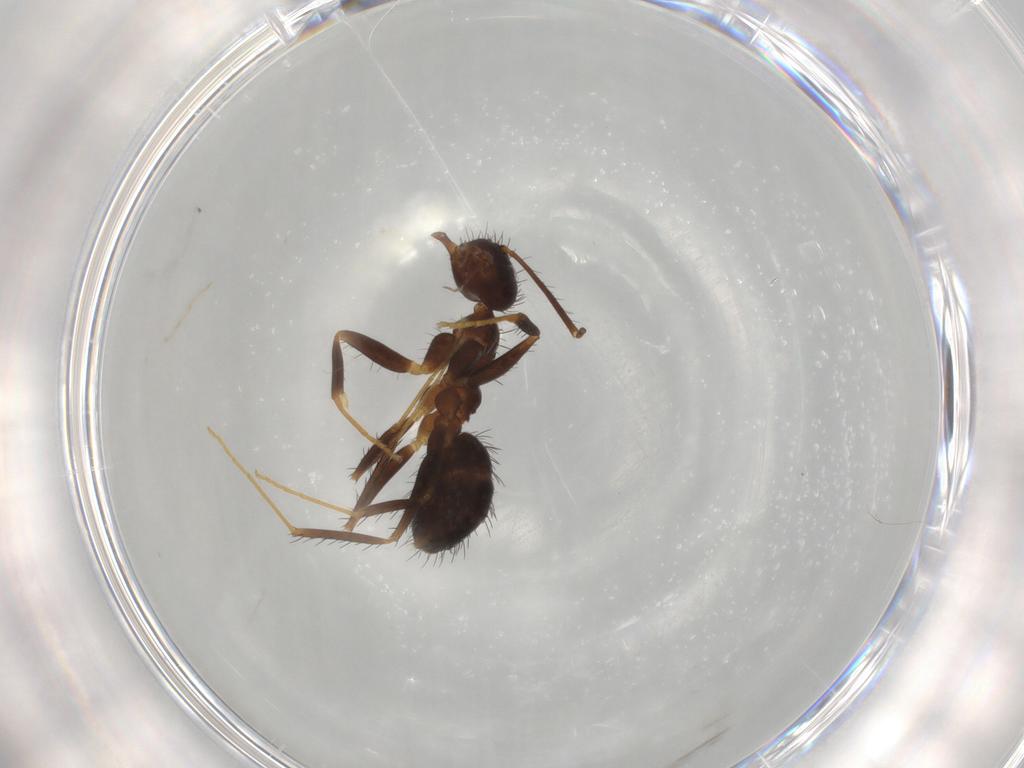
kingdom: Animalia
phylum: Arthropoda
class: Insecta
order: Hymenoptera
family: Formicidae
